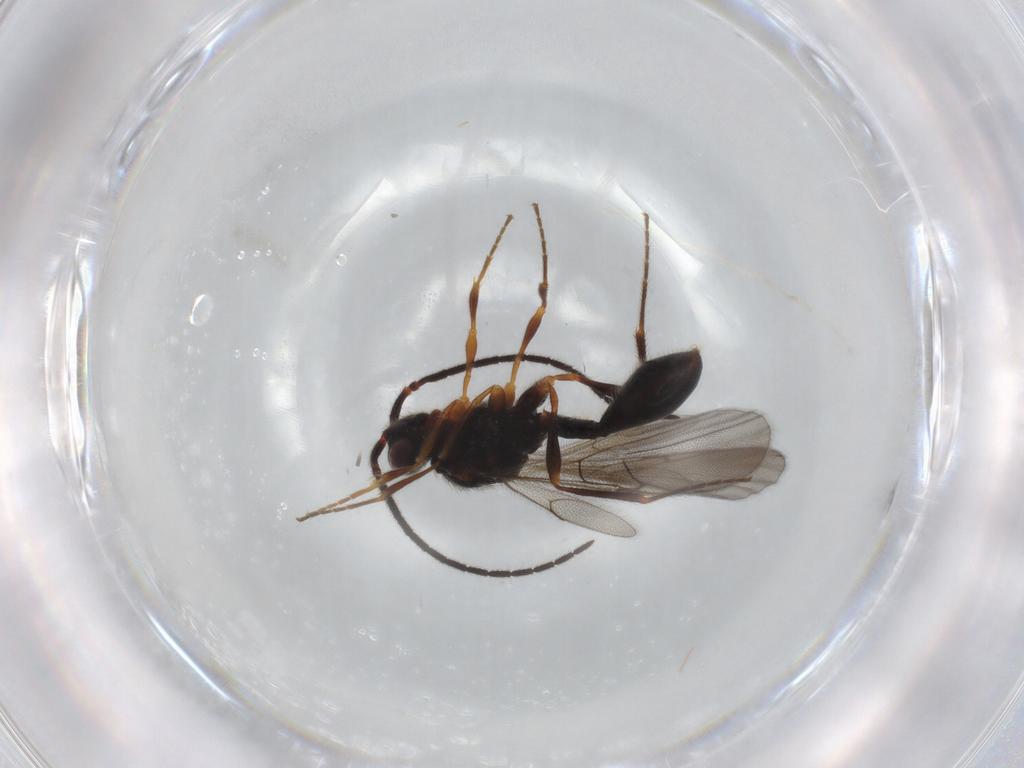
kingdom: Animalia
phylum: Arthropoda
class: Insecta
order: Hymenoptera
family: Diapriidae
